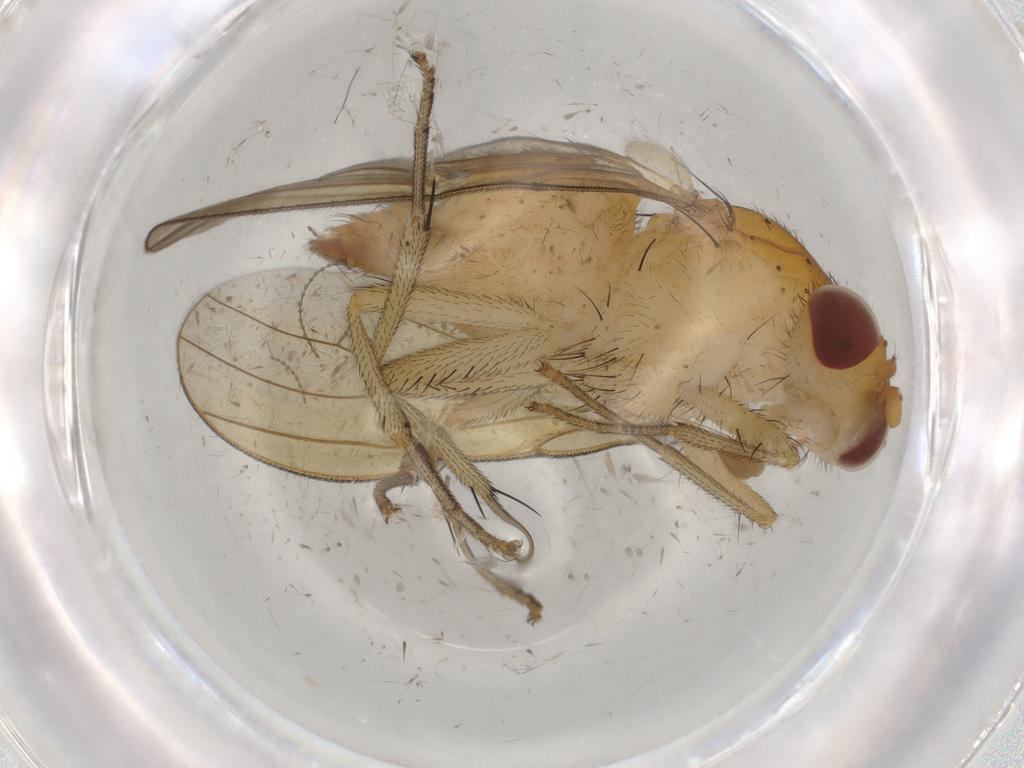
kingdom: Animalia
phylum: Arthropoda
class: Insecta
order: Diptera
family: Ceratopogonidae
